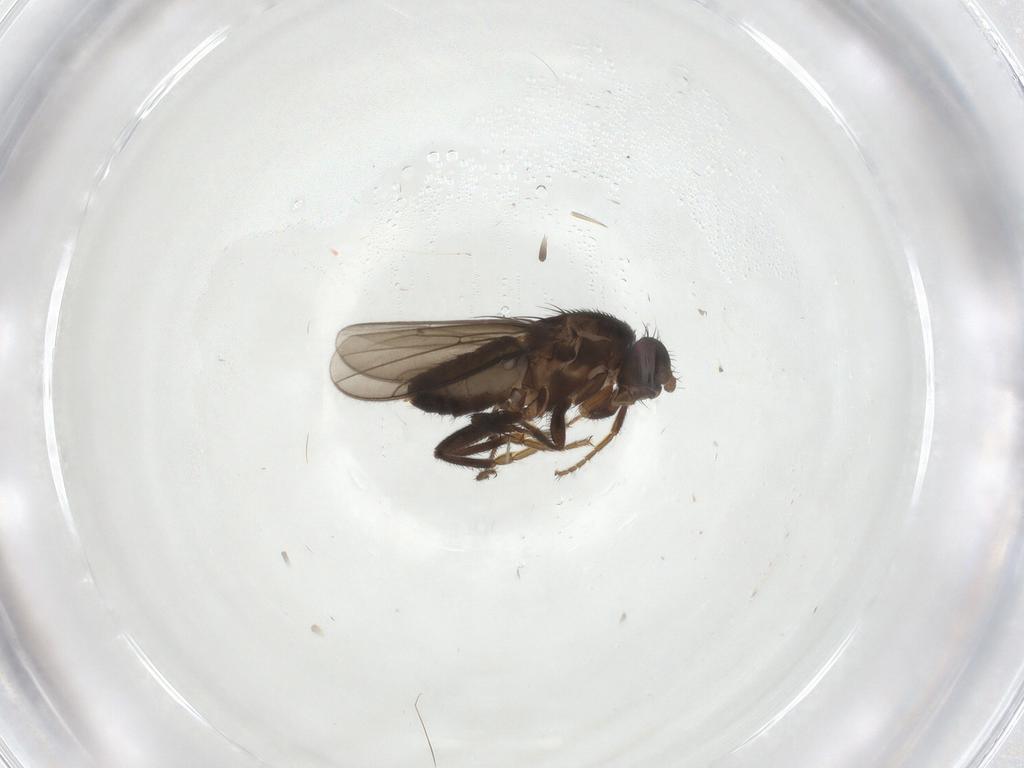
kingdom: Animalia
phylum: Arthropoda
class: Insecta
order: Diptera
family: Sphaeroceridae
